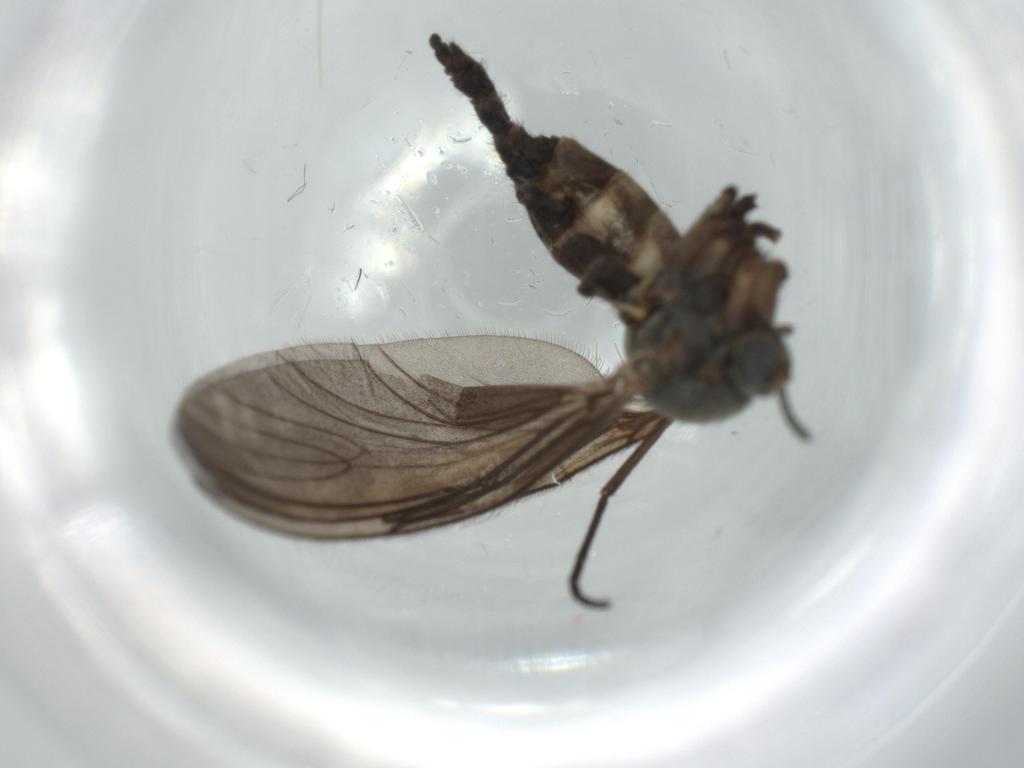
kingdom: Animalia
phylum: Arthropoda
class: Insecta
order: Diptera
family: Sciaridae
